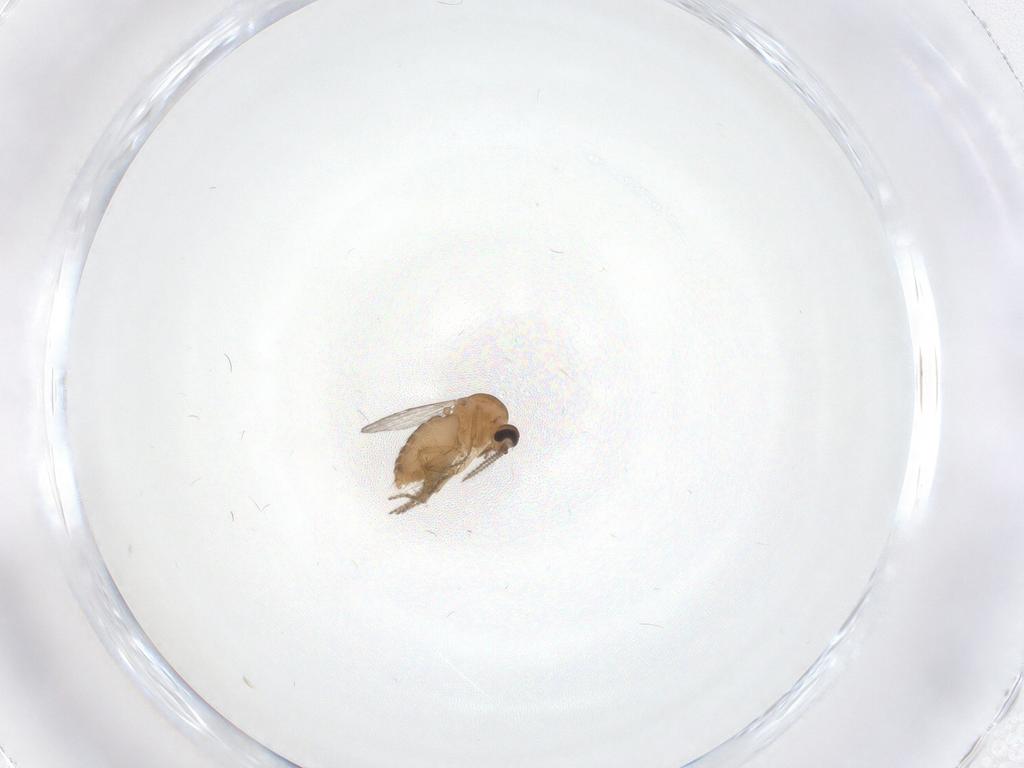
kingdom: Animalia
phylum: Arthropoda
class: Insecta
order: Diptera
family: Ceratopogonidae
